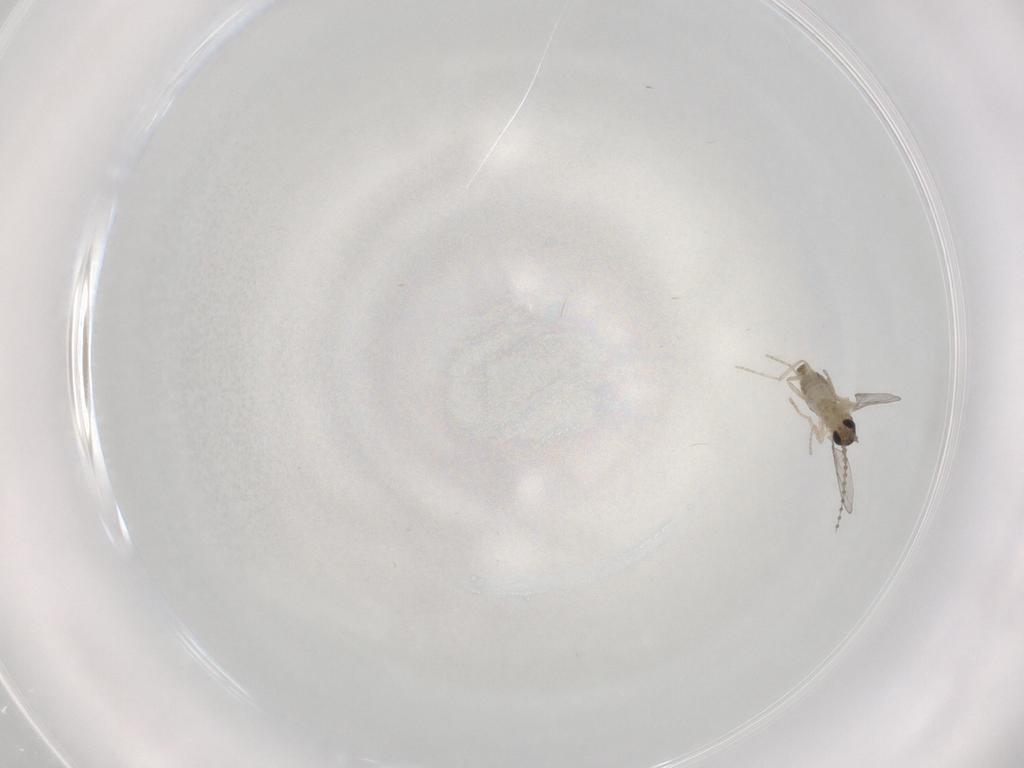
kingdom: Animalia
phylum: Arthropoda
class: Insecta
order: Diptera
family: Cecidomyiidae
